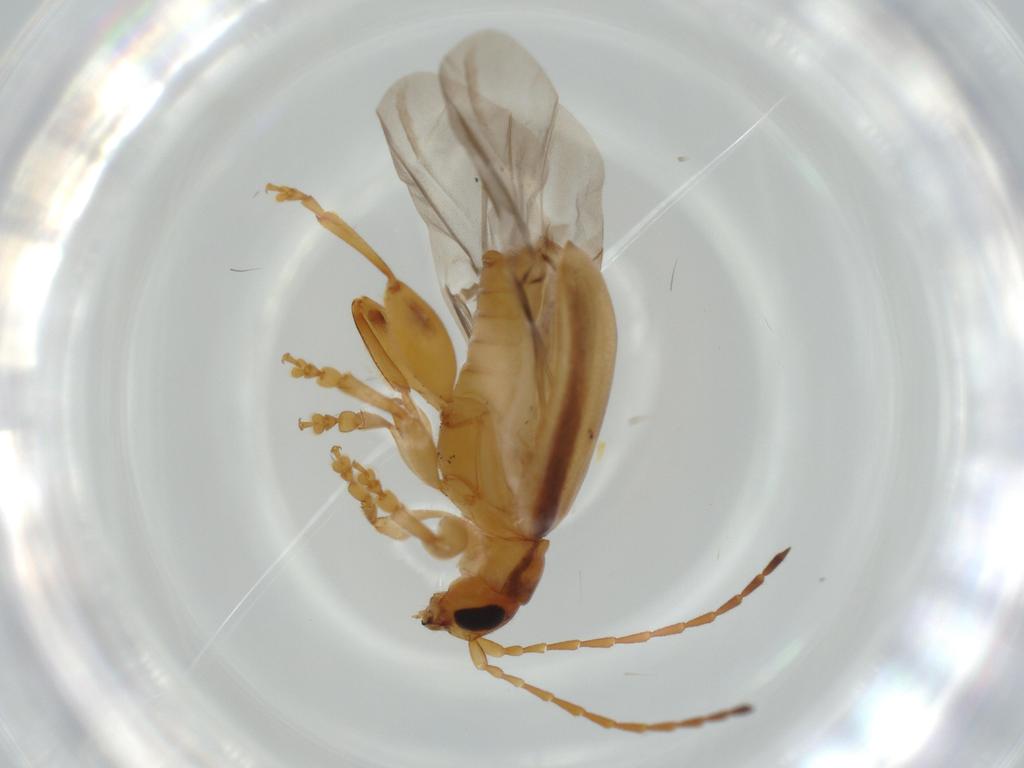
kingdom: Animalia
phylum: Arthropoda
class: Insecta
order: Coleoptera
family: Chrysomelidae
